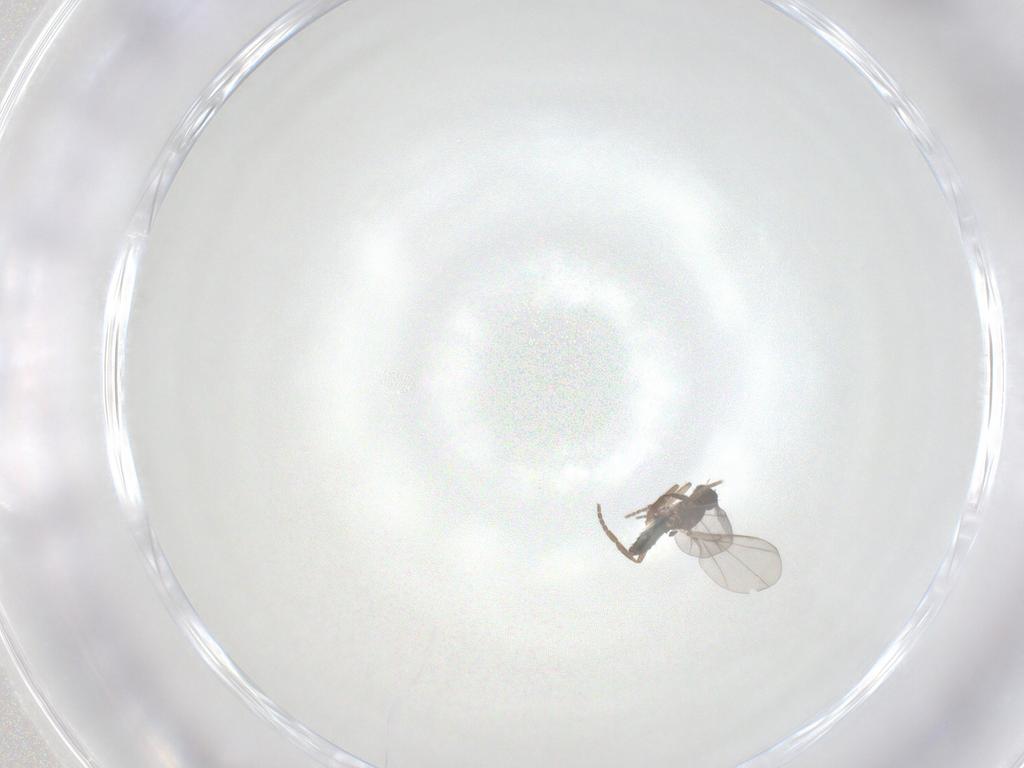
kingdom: Animalia
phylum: Arthropoda
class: Insecta
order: Diptera
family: Phoridae
